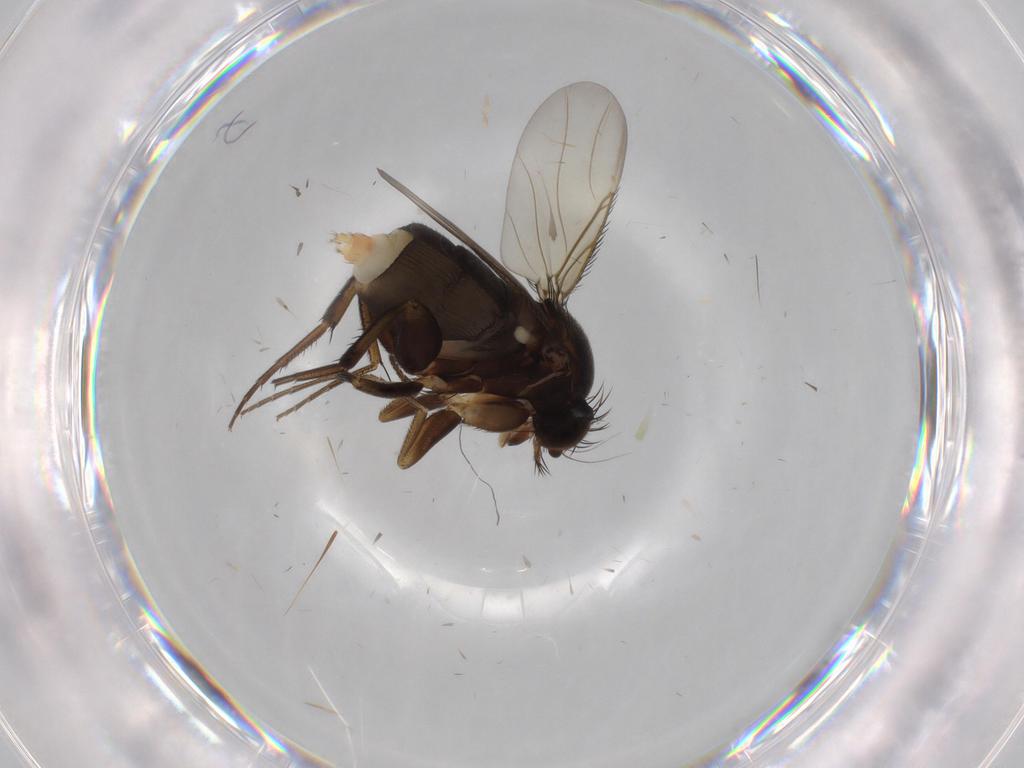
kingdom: Animalia
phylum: Arthropoda
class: Insecta
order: Diptera
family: Phoridae
